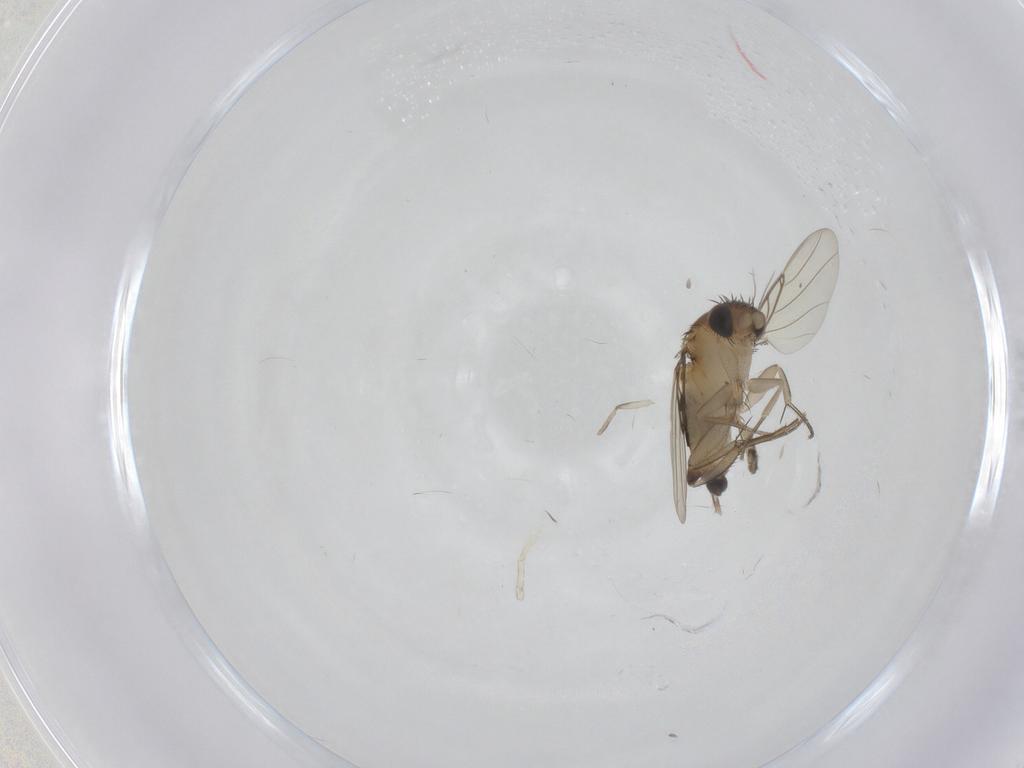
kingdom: Animalia
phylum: Arthropoda
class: Insecta
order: Diptera
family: Phoridae
